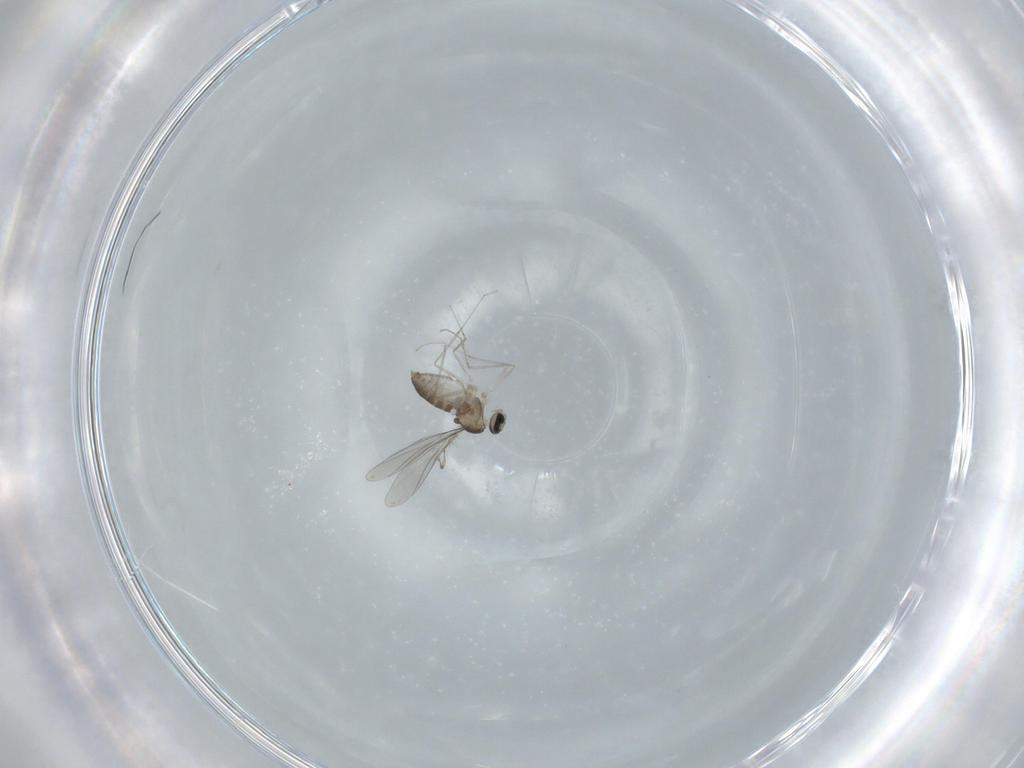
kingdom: Animalia
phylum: Arthropoda
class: Insecta
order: Diptera
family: Cecidomyiidae
